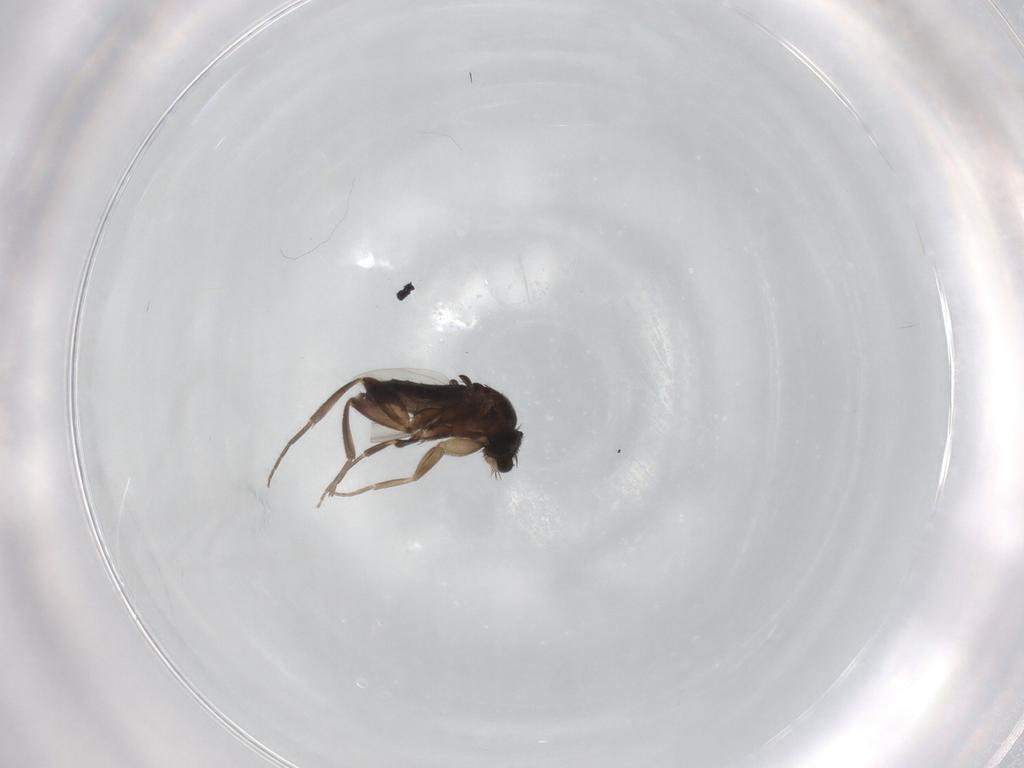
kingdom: Animalia
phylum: Arthropoda
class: Insecta
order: Diptera
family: Phoridae
